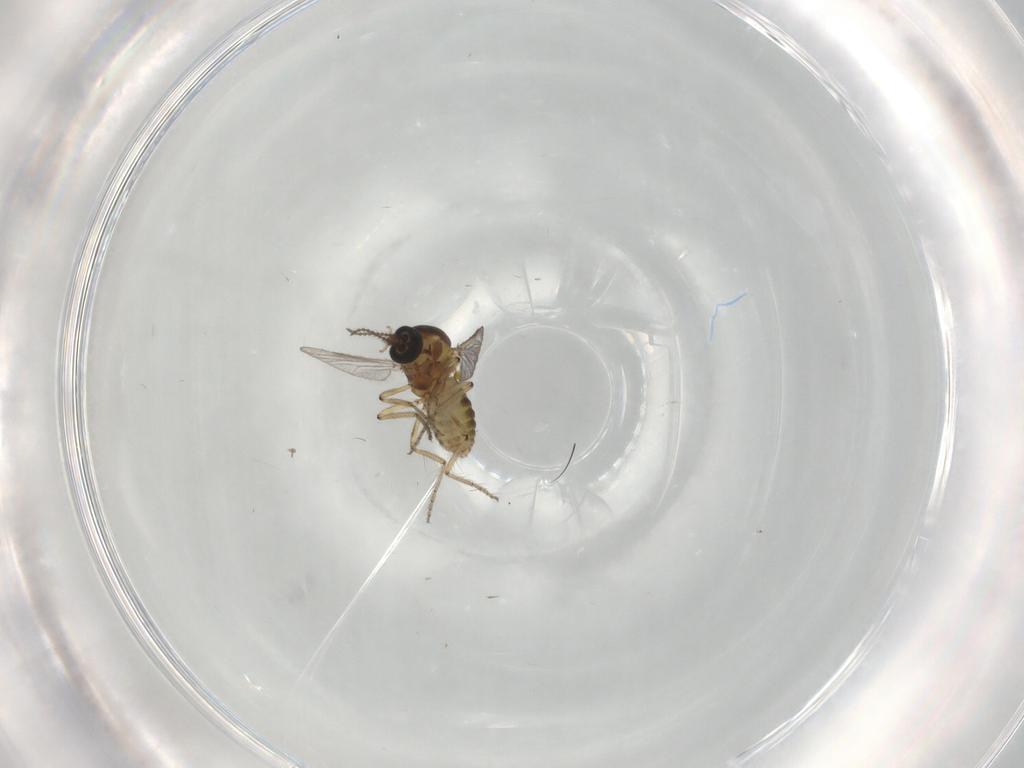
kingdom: Animalia
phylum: Arthropoda
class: Insecta
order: Diptera
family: Ceratopogonidae
